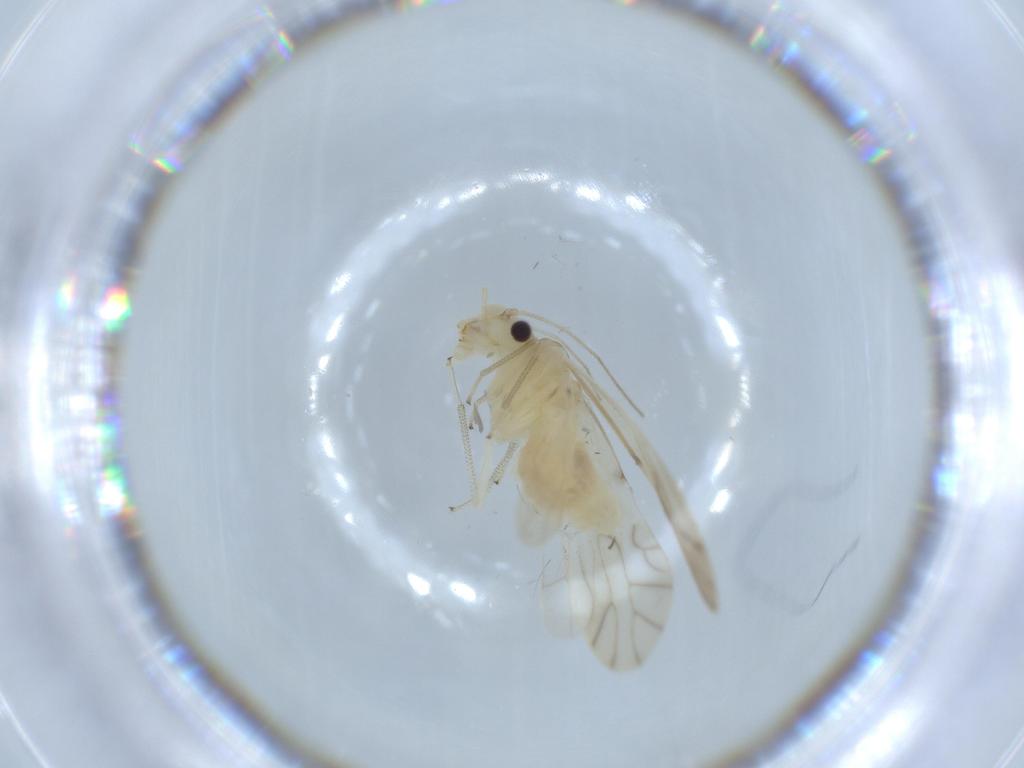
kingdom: Animalia
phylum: Arthropoda
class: Insecta
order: Psocodea
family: Caeciliusidae
